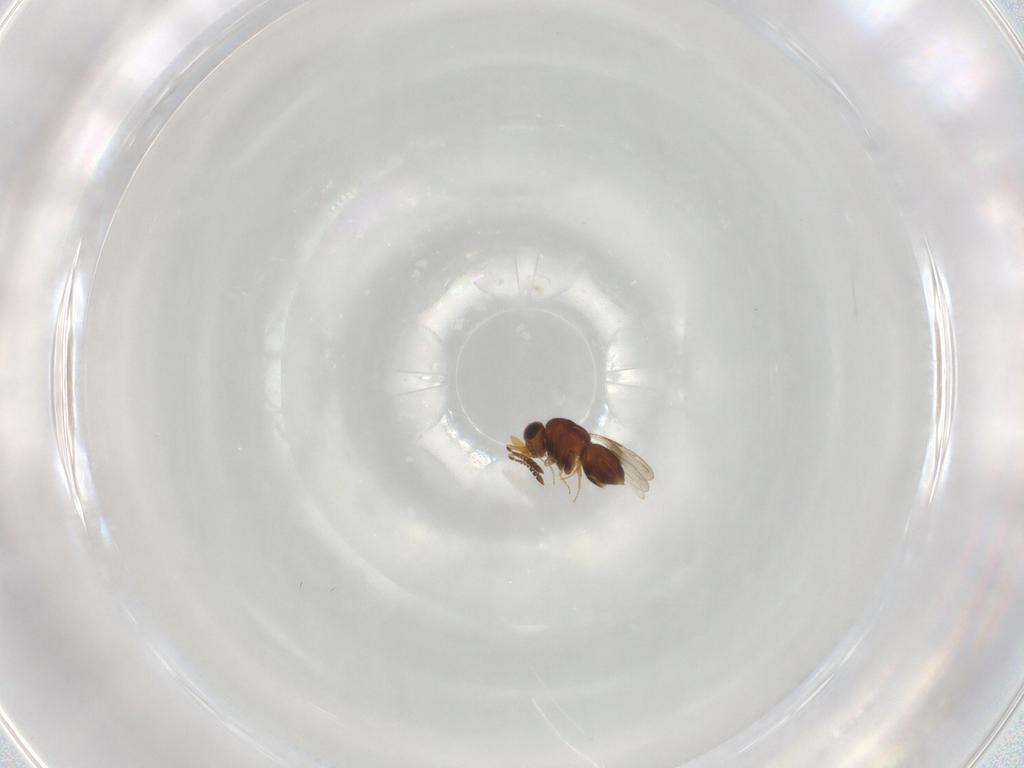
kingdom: Animalia
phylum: Arthropoda
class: Insecta
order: Hymenoptera
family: Ceraphronidae
